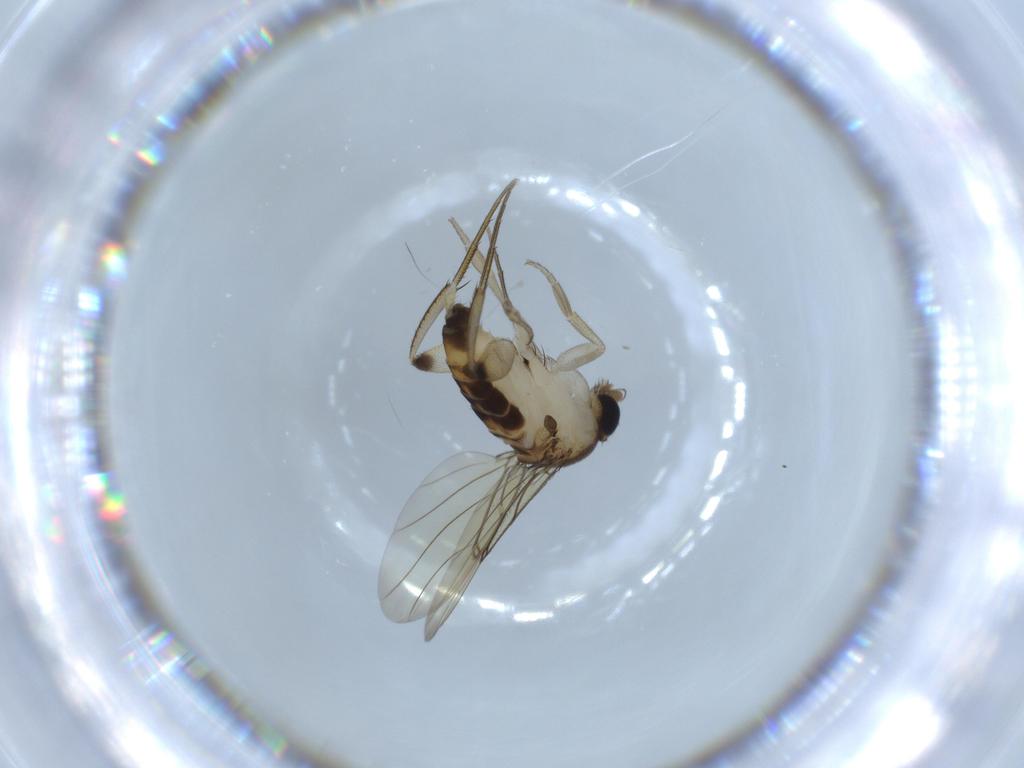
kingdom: Animalia
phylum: Arthropoda
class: Insecta
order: Diptera
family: Phoridae
